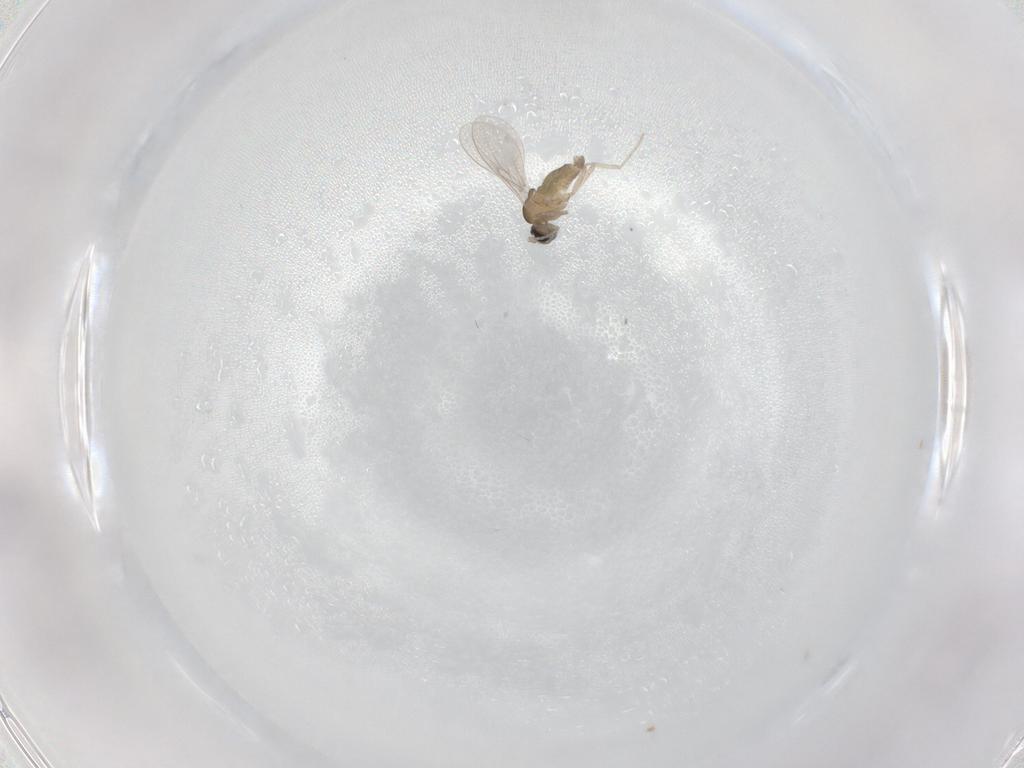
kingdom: Animalia
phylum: Arthropoda
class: Insecta
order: Diptera
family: Cecidomyiidae
